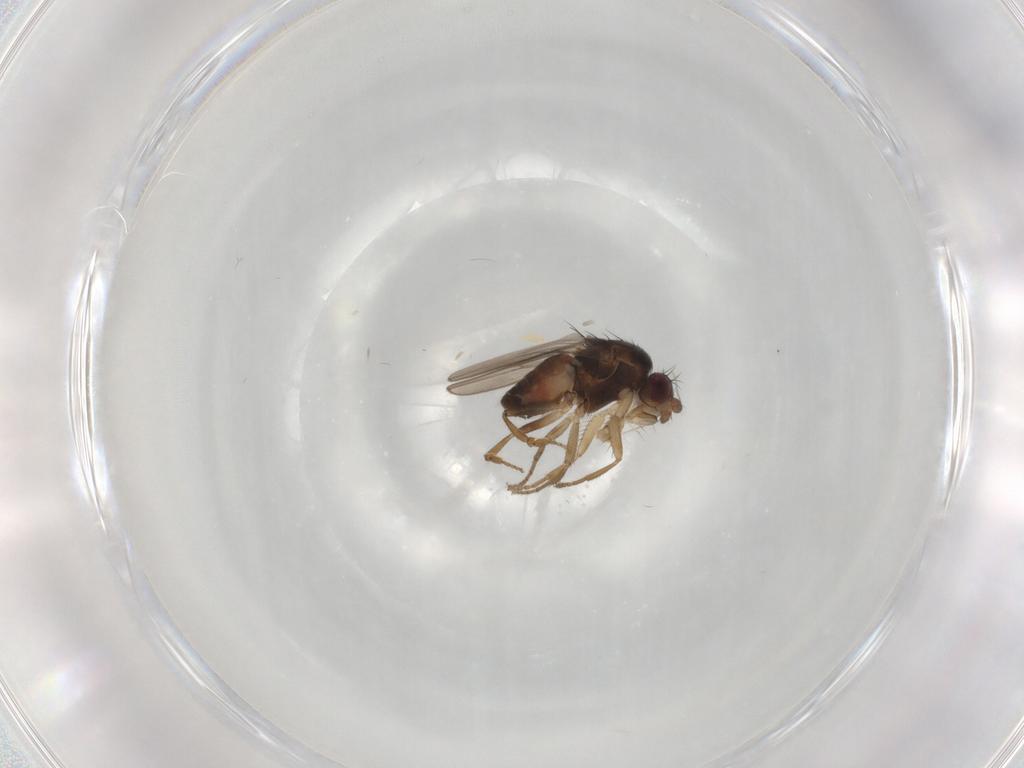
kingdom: Animalia
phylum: Arthropoda
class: Insecta
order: Diptera
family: Sphaeroceridae
